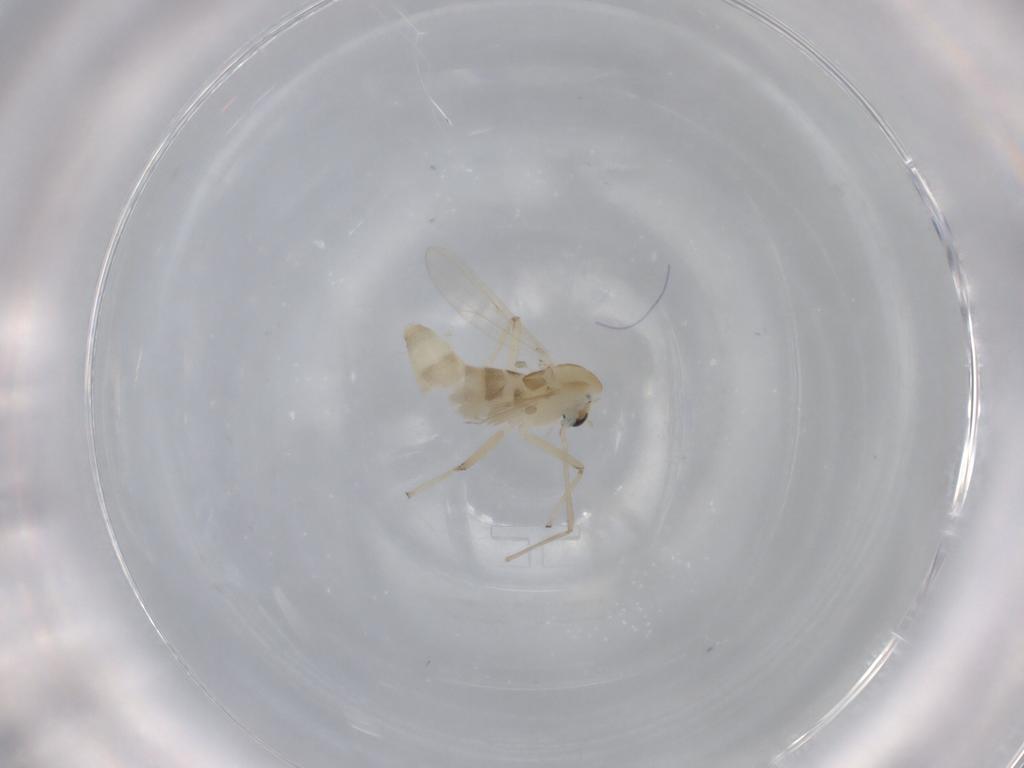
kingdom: Animalia
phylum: Arthropoda
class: Insecta
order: Diptera
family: Chironomidae
